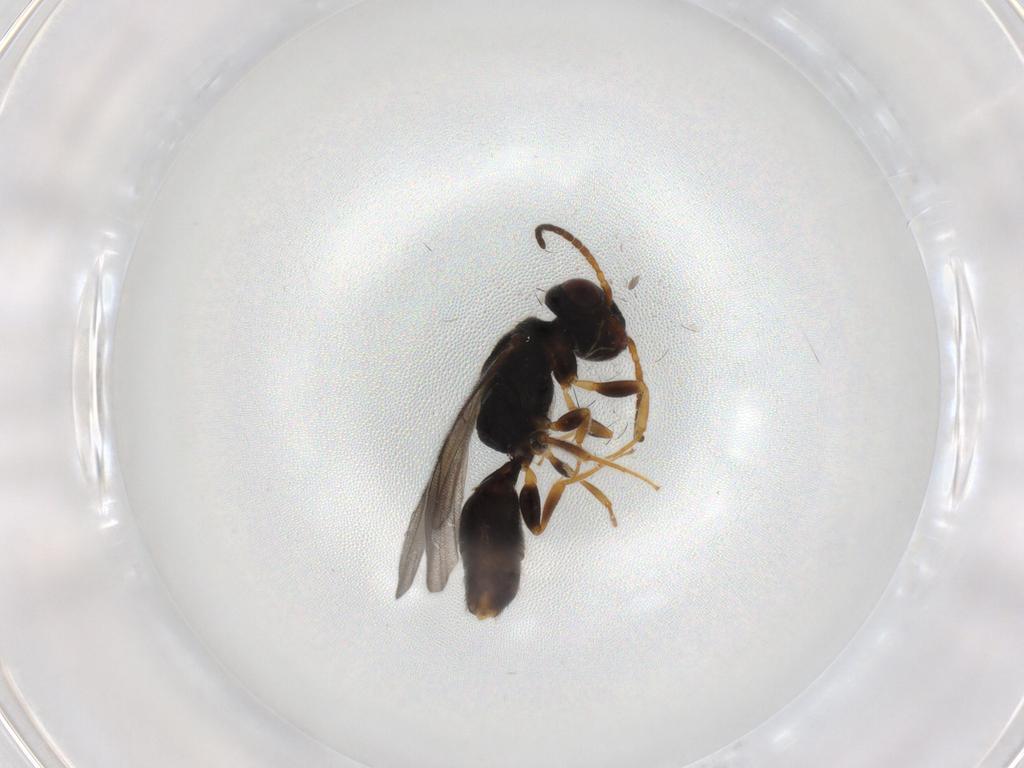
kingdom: Animalia
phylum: Arthropoda
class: Insecta
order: Hymenoptera
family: Bethylidae
